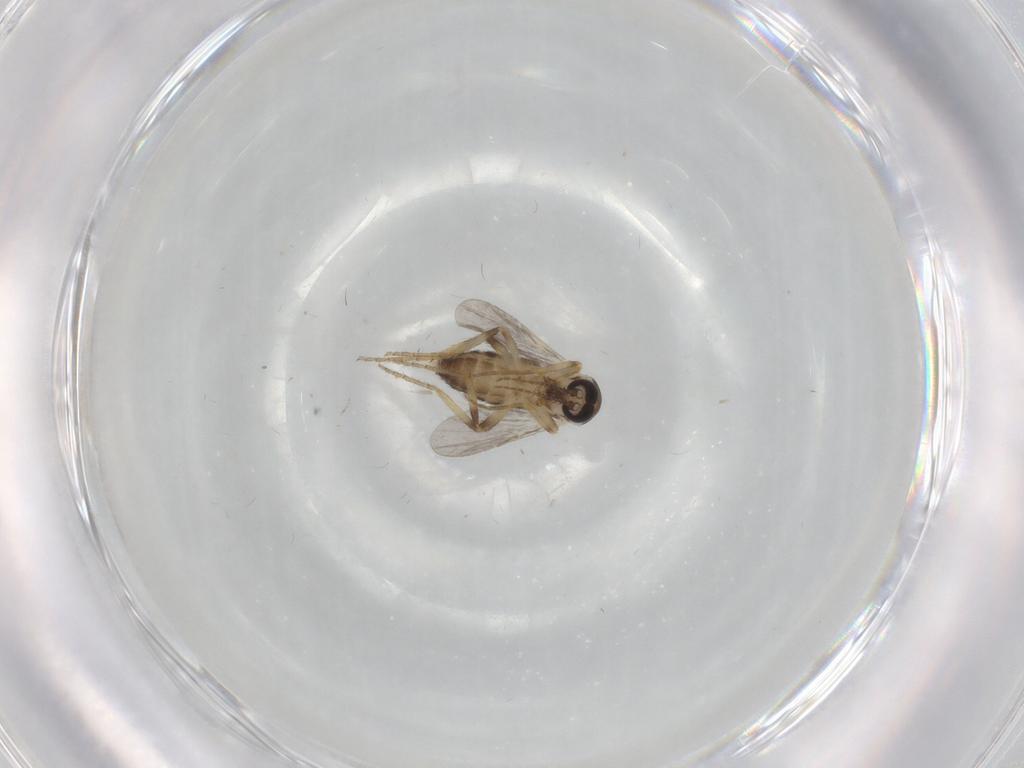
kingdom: Animalia
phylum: Arthropoda
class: Insecta
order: Diptera
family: Ceratopogonidae
